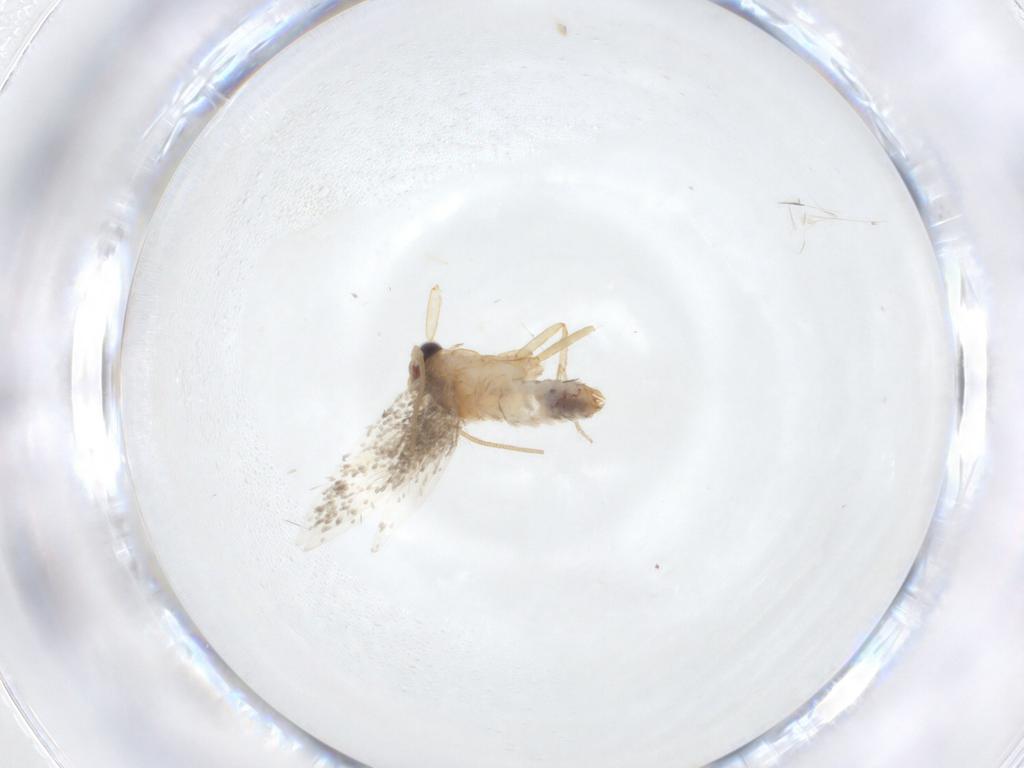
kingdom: Animalia
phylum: Arthropoda
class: Insecta
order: Lepidoptera
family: Nepticulidae
